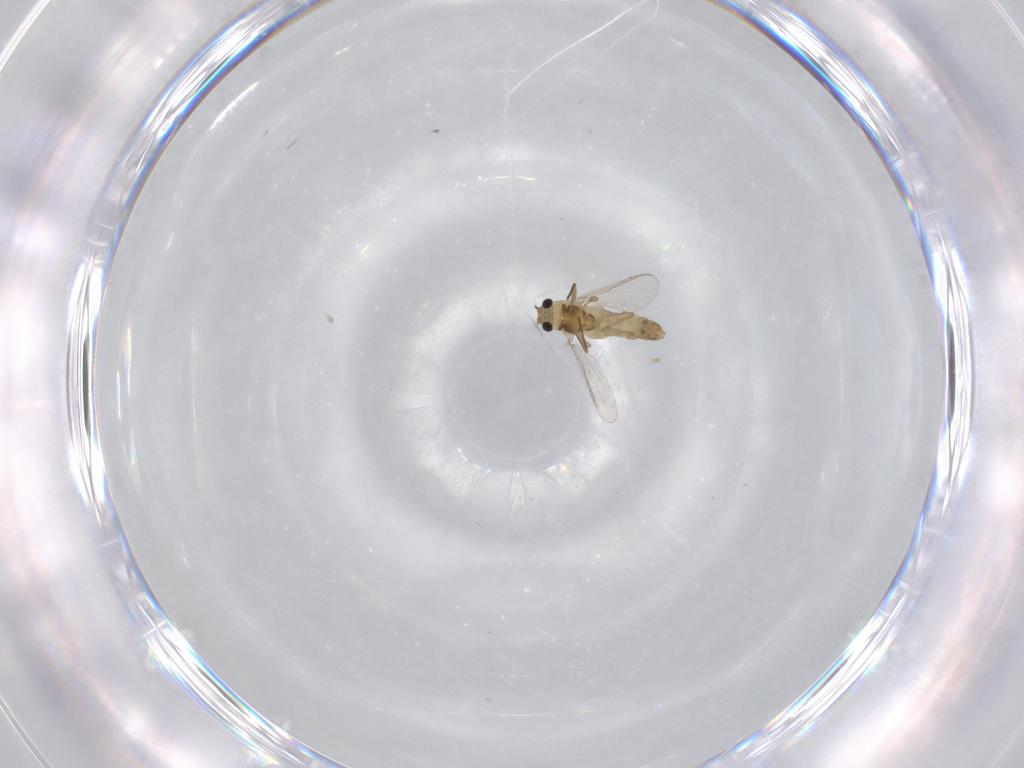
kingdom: Animalia
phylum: Arthropoda
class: Insecta
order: Diptera
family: Chironomidae
